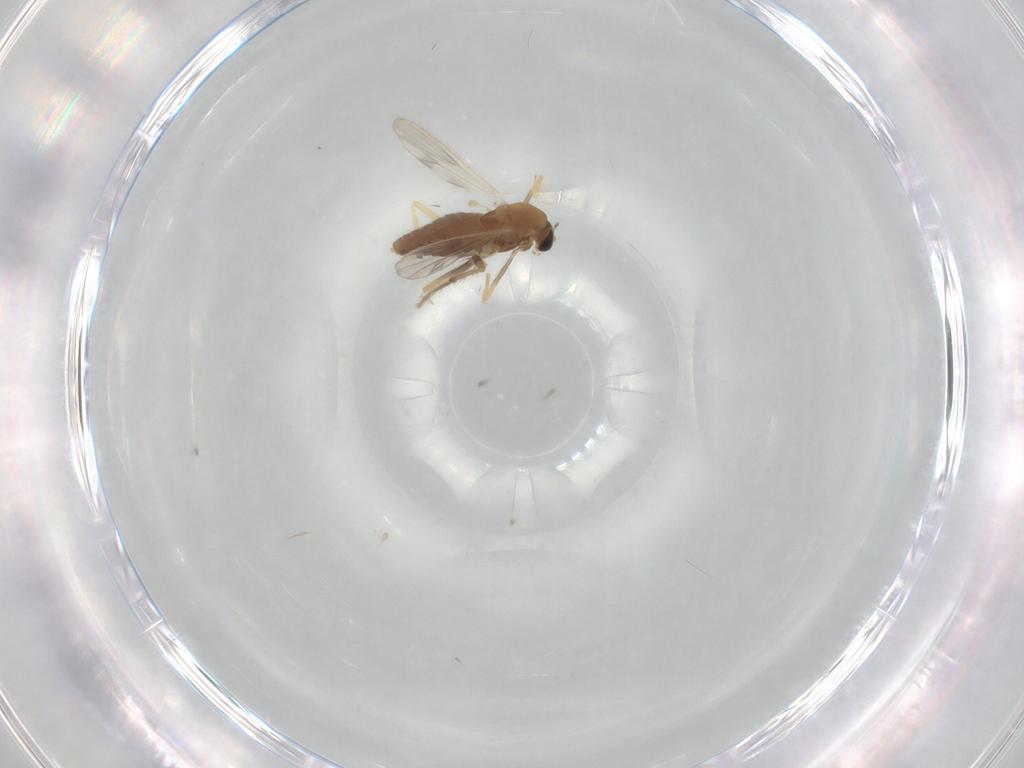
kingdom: Animalia
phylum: Arthropoda
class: Insecta
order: Diptera
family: Chironomidae
